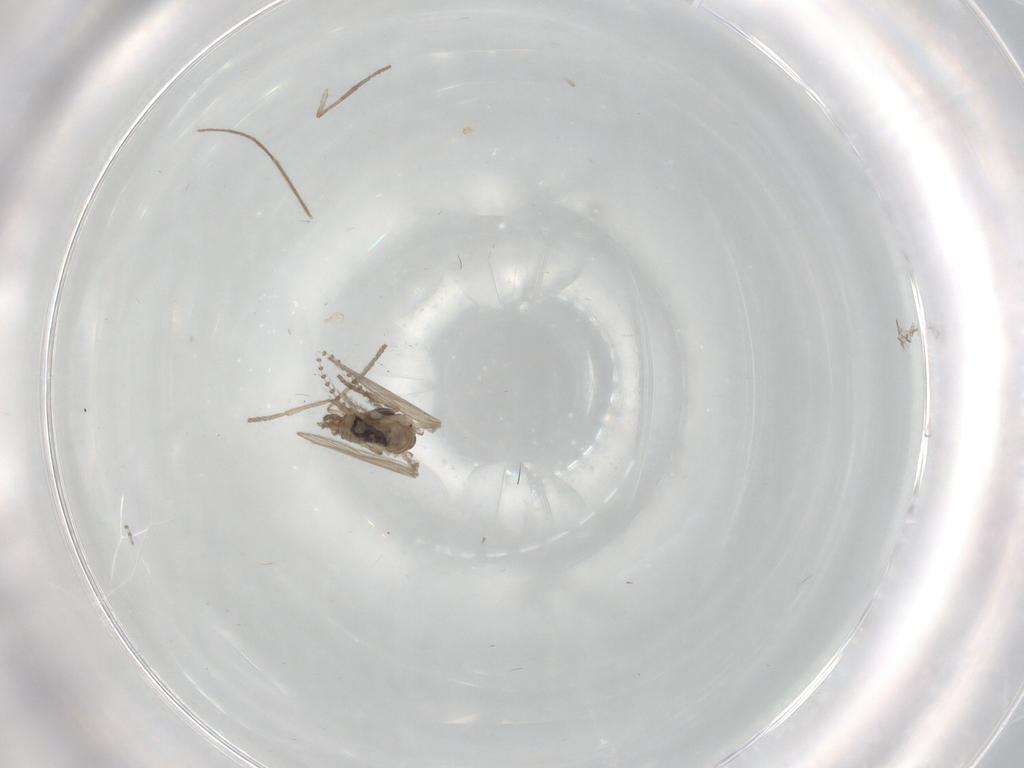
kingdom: Animalia
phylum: Arthropoda
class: Insecta
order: Diptera
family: Psychodidae
